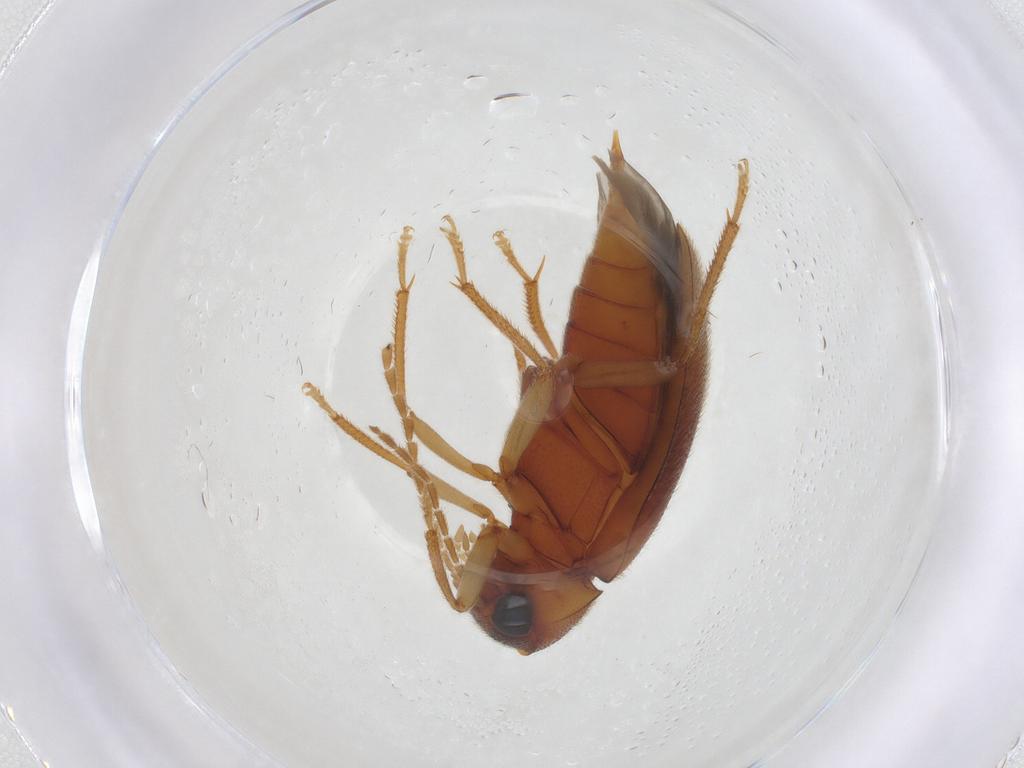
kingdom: Animalia
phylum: Arthropoda
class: Insecta
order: Coleoptera
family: Ptilodactylidae
